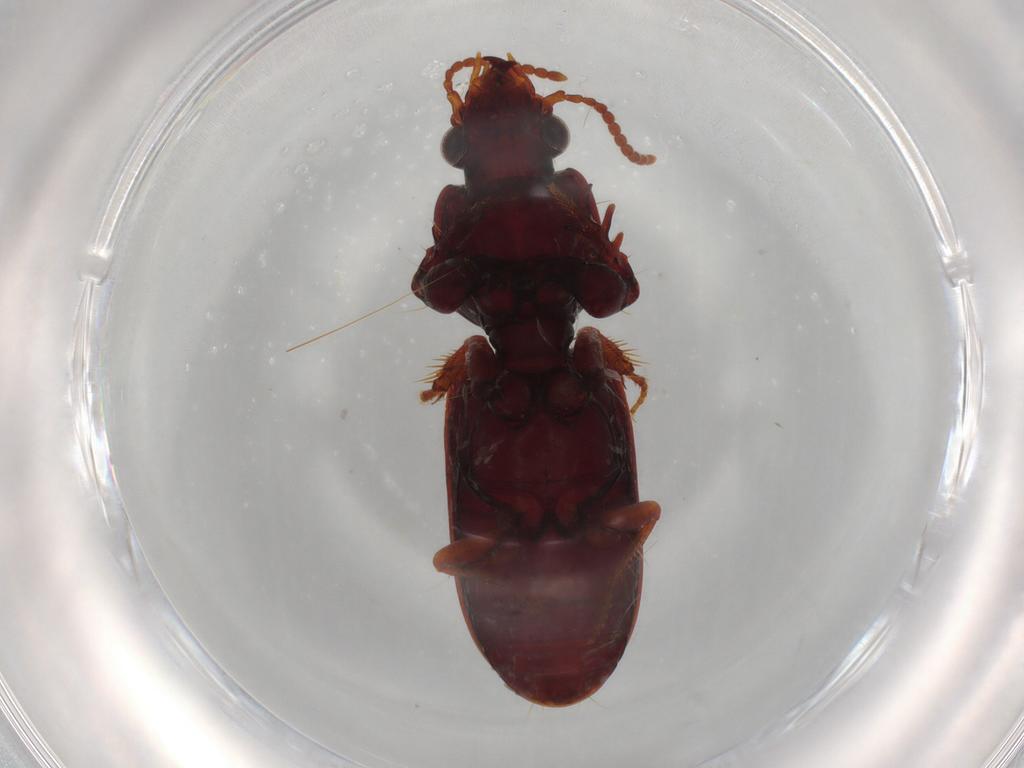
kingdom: Animalia
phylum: Arthropoda
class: Insecta
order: Coleoptera
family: Carabidae
